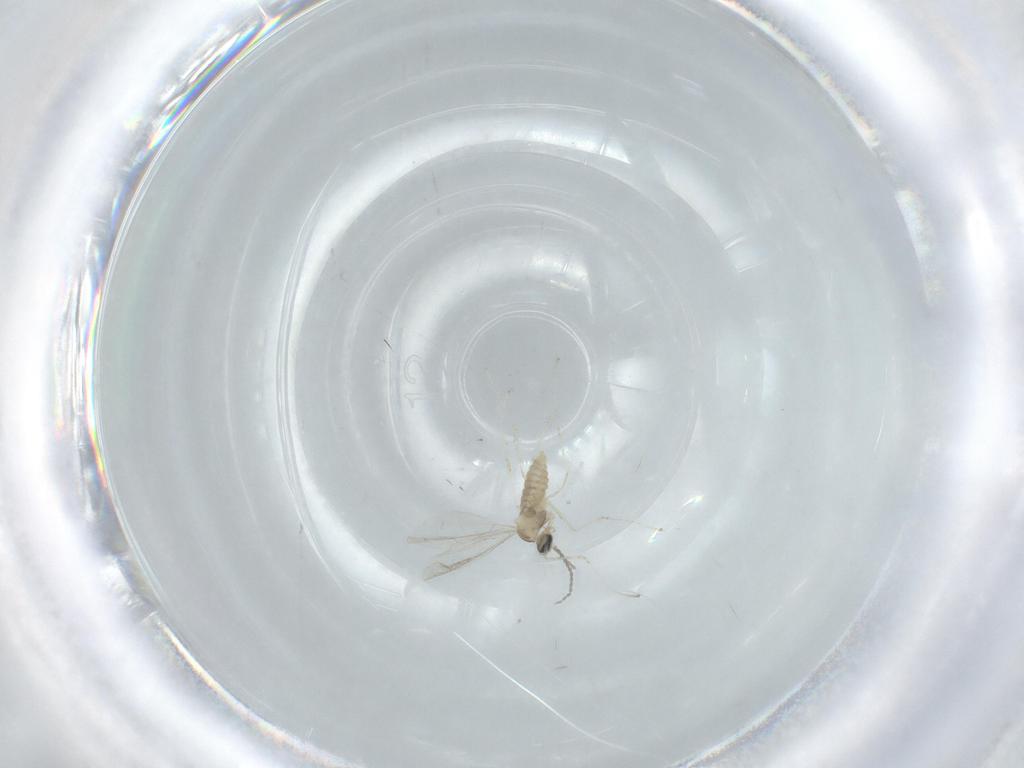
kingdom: Animalia
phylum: Arthropoda
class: Insecta
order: Diptera
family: Cecidomyiidae
